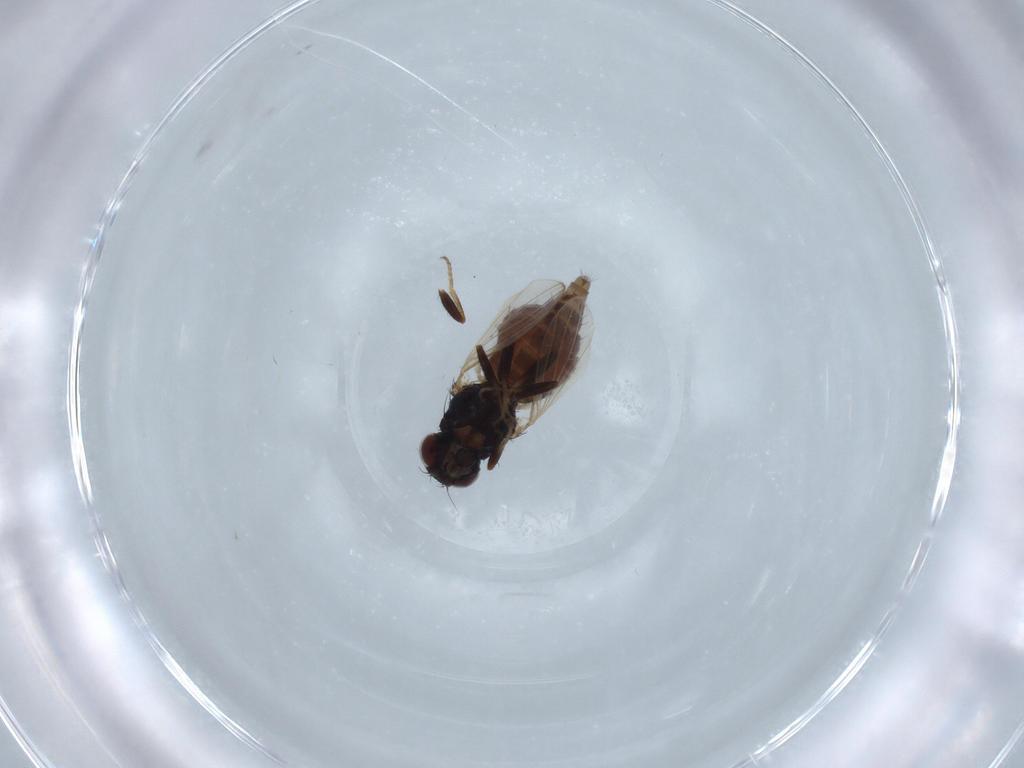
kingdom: Animalia
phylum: Arthropoda
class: Insecta
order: Diptera
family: Carnidae
